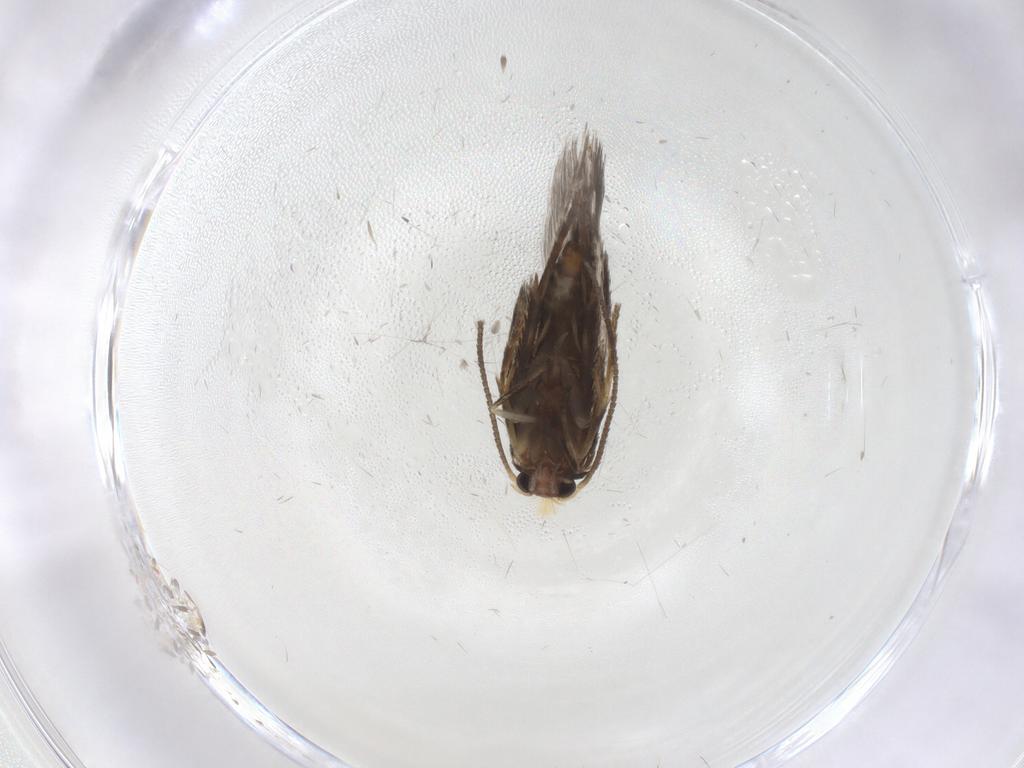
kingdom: Animalia
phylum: Arthropoda
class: Insecta
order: Lepidoptera
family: Nepticulidae
